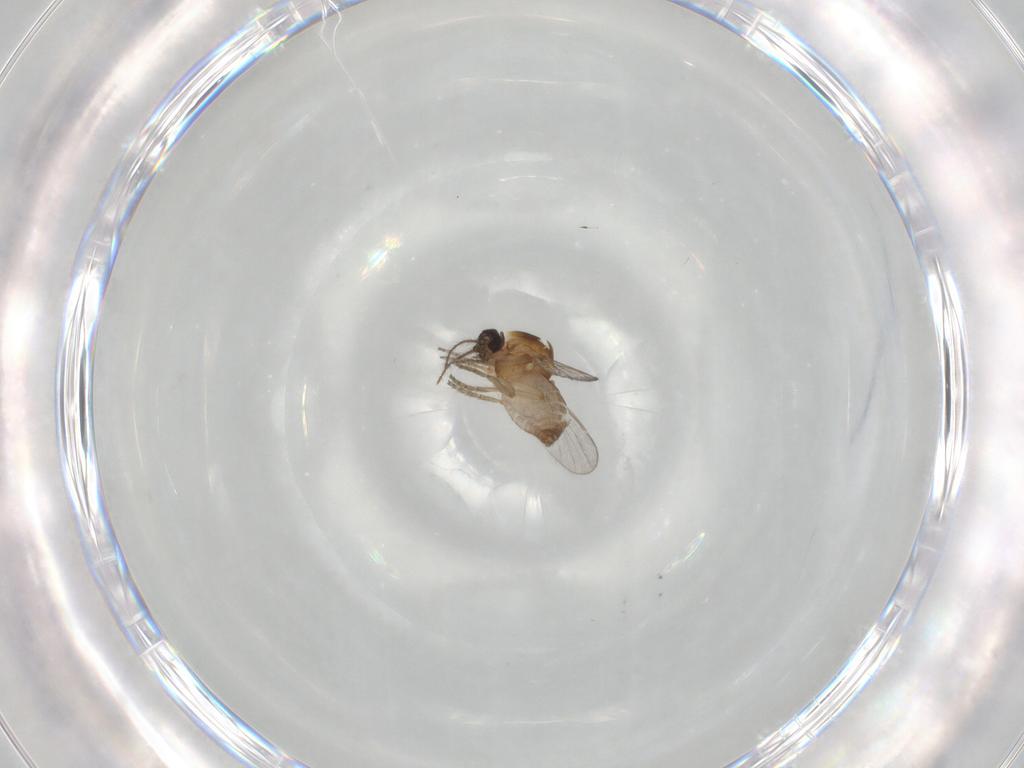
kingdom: Animalia
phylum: Arthropoda
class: Insecta
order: Diptera
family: Ceratopogonidae
